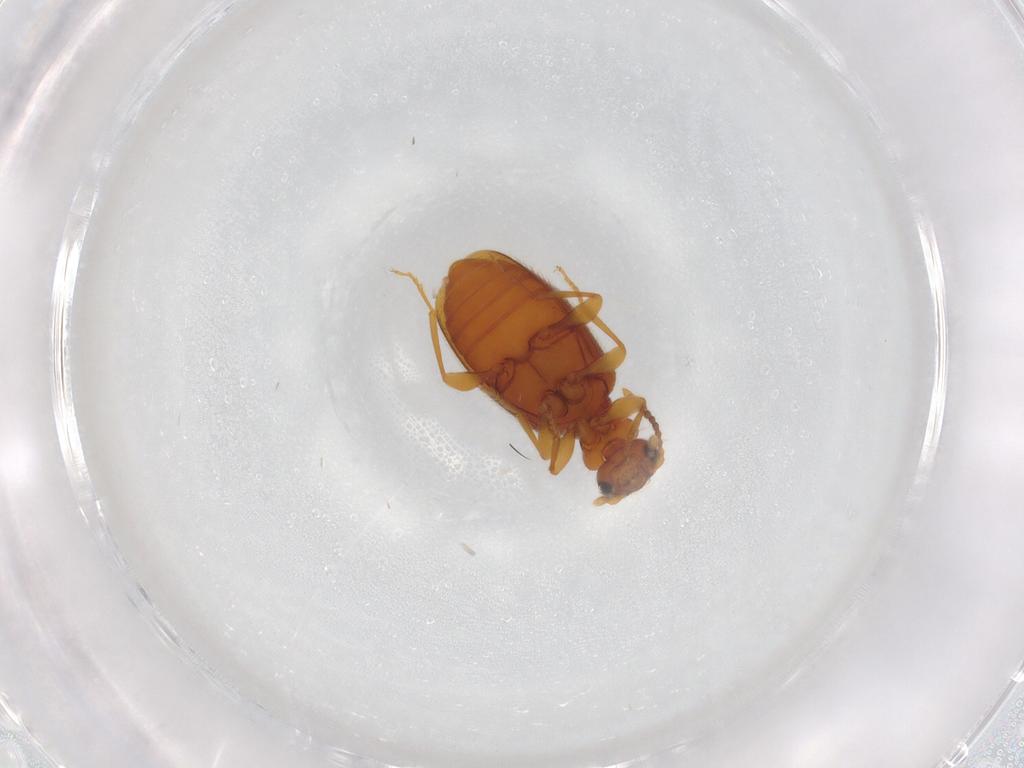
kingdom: Animalia
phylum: Arthropoda
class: Insecta
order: Coleoptera
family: Anthicidae
